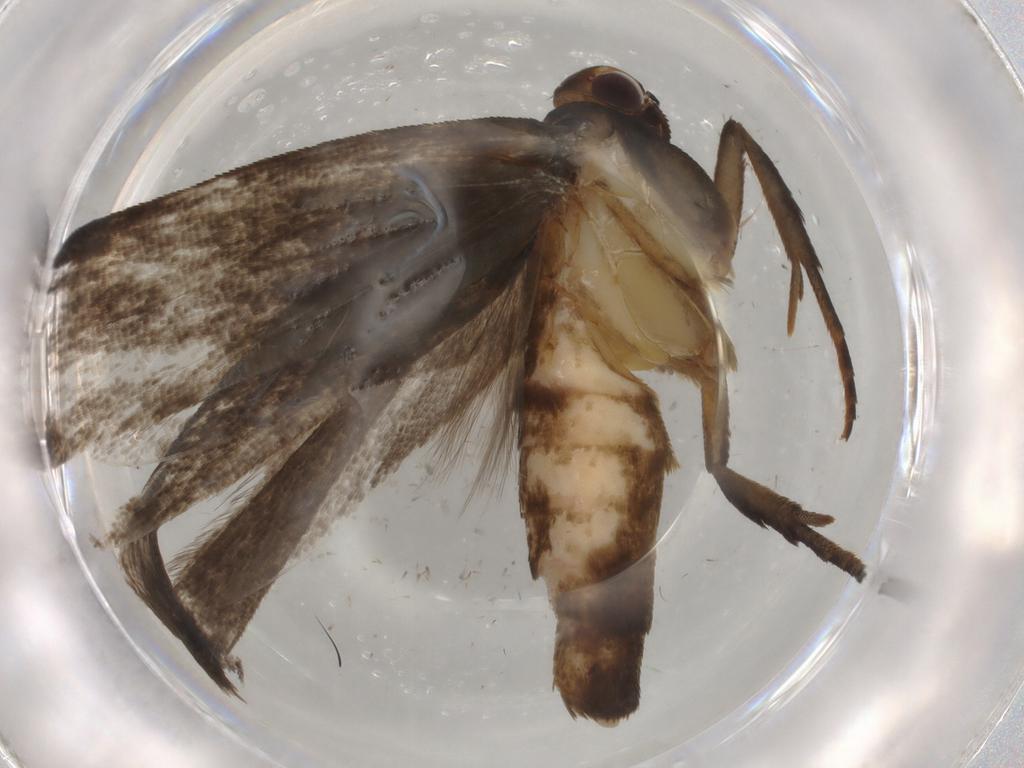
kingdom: Animalia
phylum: Arthropoda
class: Insecta
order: Lepidoptera
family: Gelechiidae
